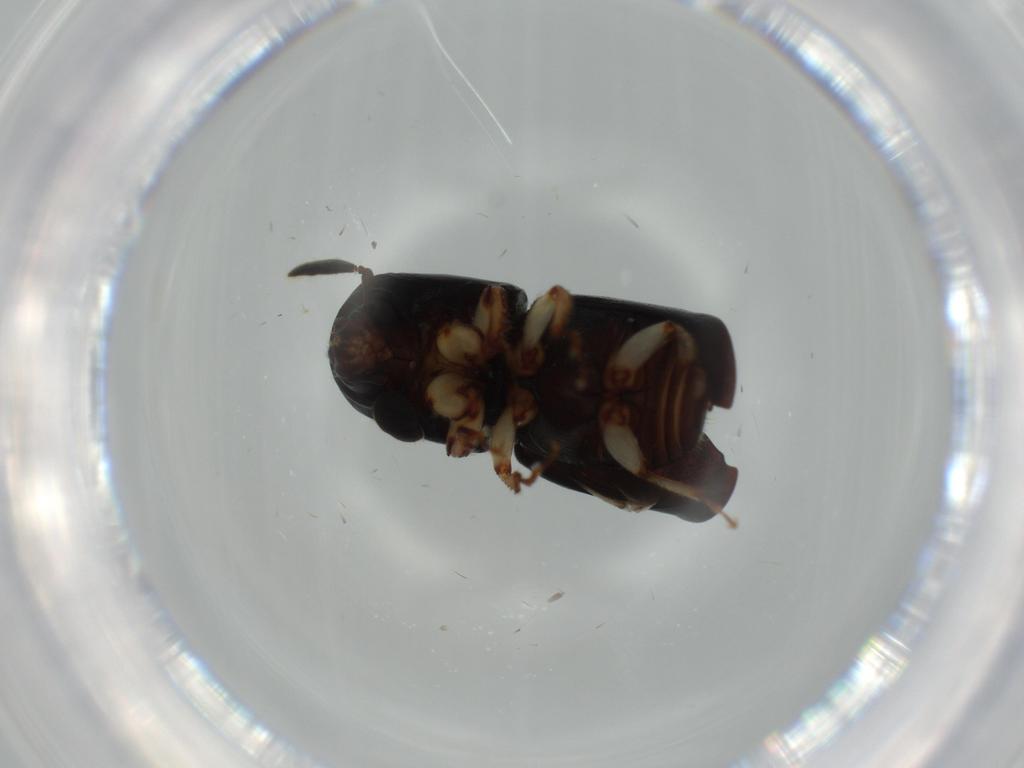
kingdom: Animalia
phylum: Arthropoda
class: Insecta
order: Coleoptera
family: Curculionidae
